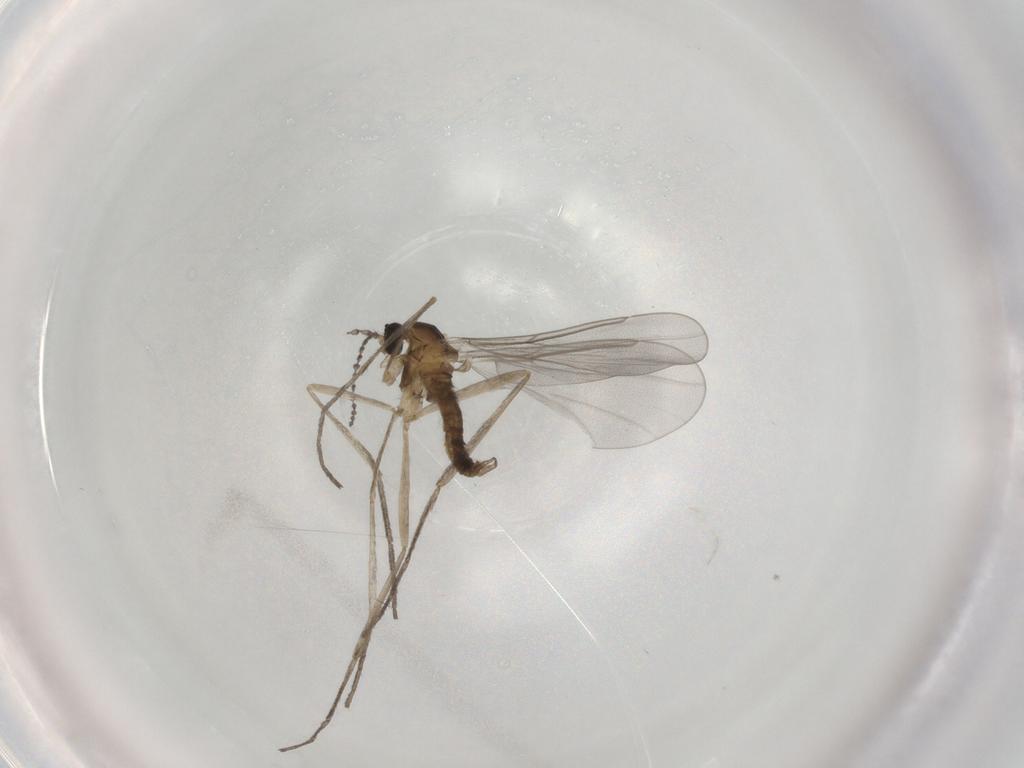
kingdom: Animalia
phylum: Arthropoda
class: Insecta
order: Diptera
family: Cecidomyiidae
